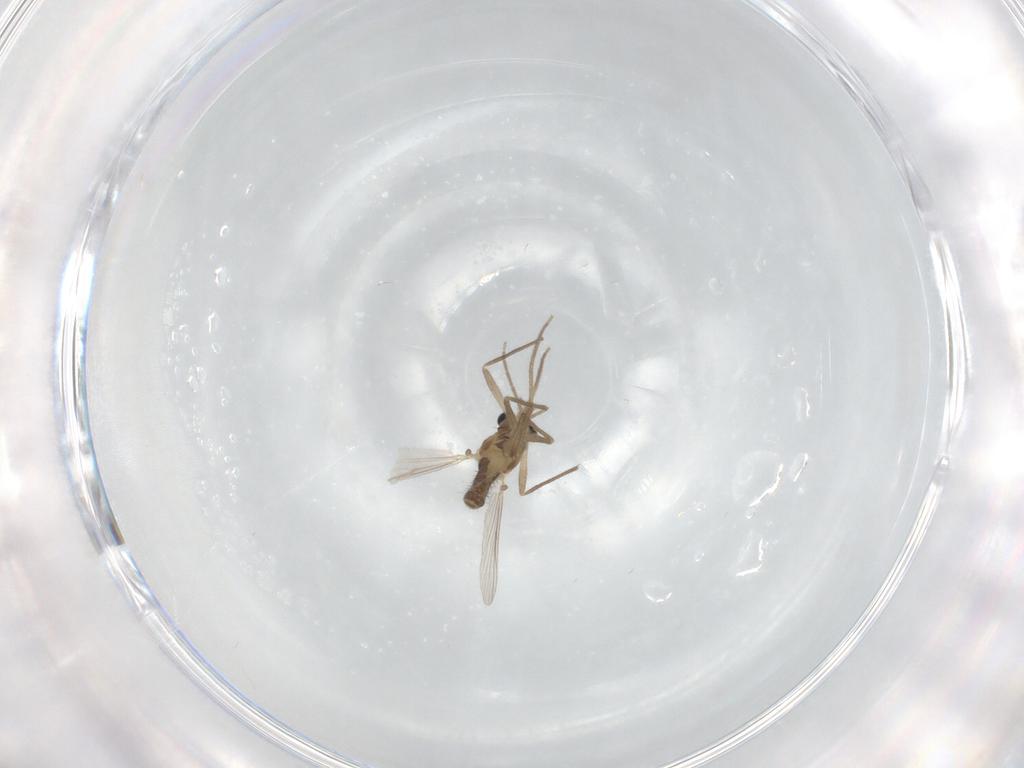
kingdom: Animalia
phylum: Arthropoda
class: Insecta
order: Diptera
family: Chironomidae
